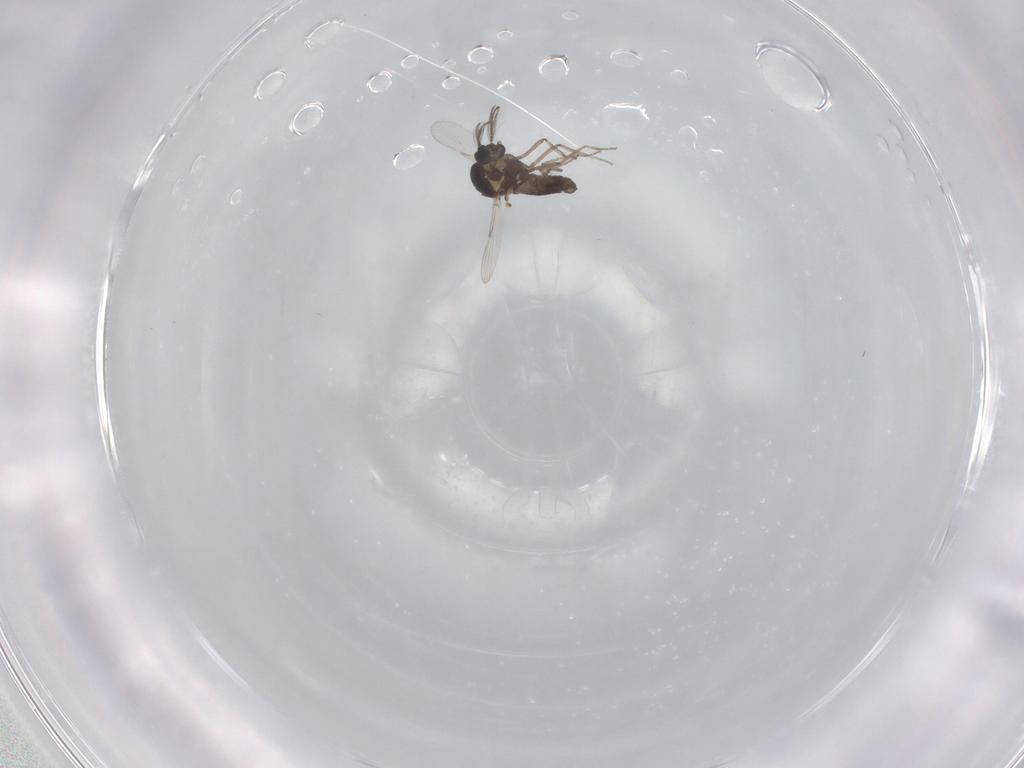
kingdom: Animalia
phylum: Arthropoda
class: Insecta
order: Diptera
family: Ceratopogonidae
